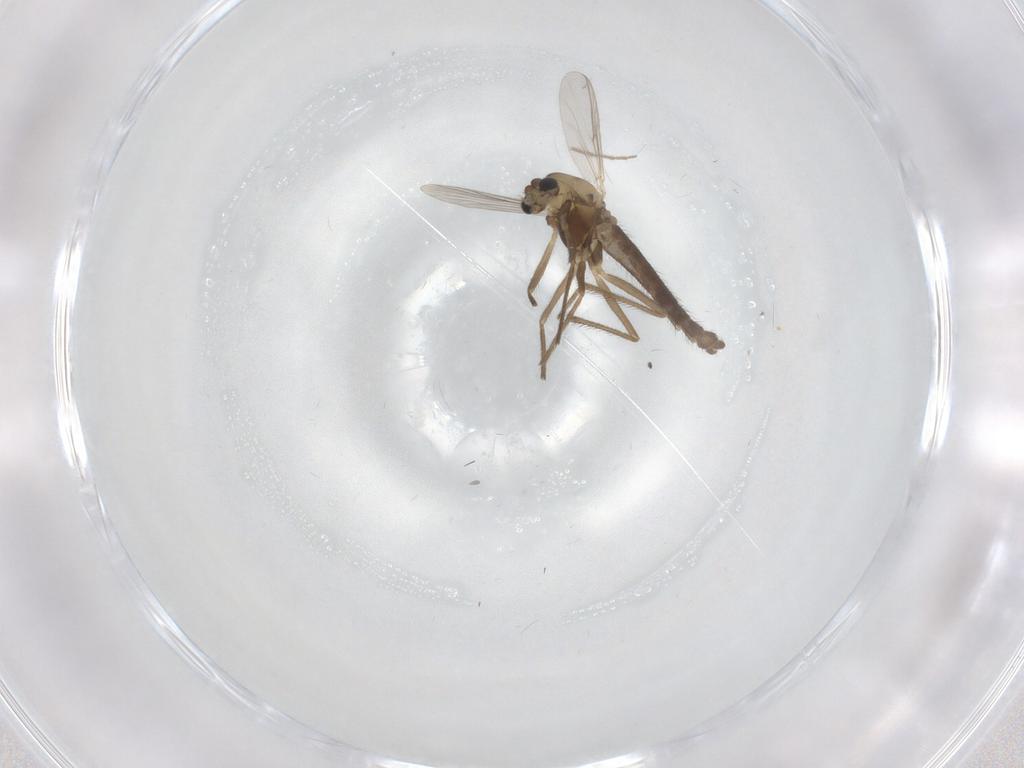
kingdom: Animalia
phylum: Arthropoda
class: Insecta
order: Diptera
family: Chironomidae
